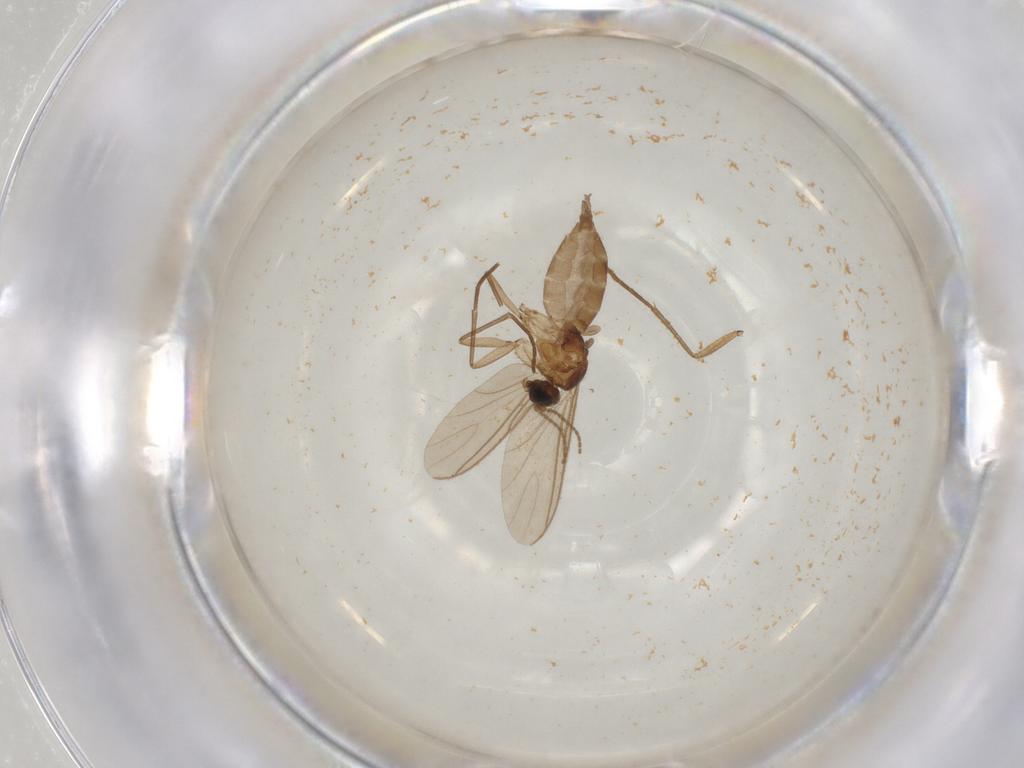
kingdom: Animalia
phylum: Arthropoda
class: Insecta
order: Diptera
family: Sciaridae
